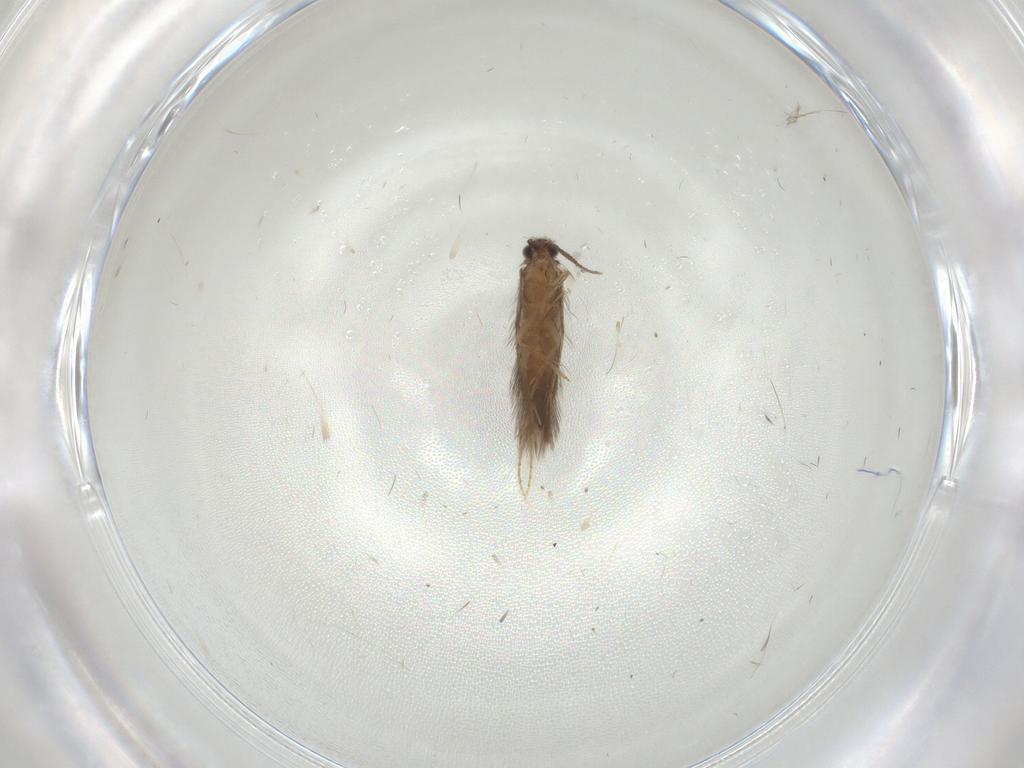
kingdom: Animalia
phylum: Arthropoda
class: Insecta
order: Trichoptera
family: Hydroptilidae
